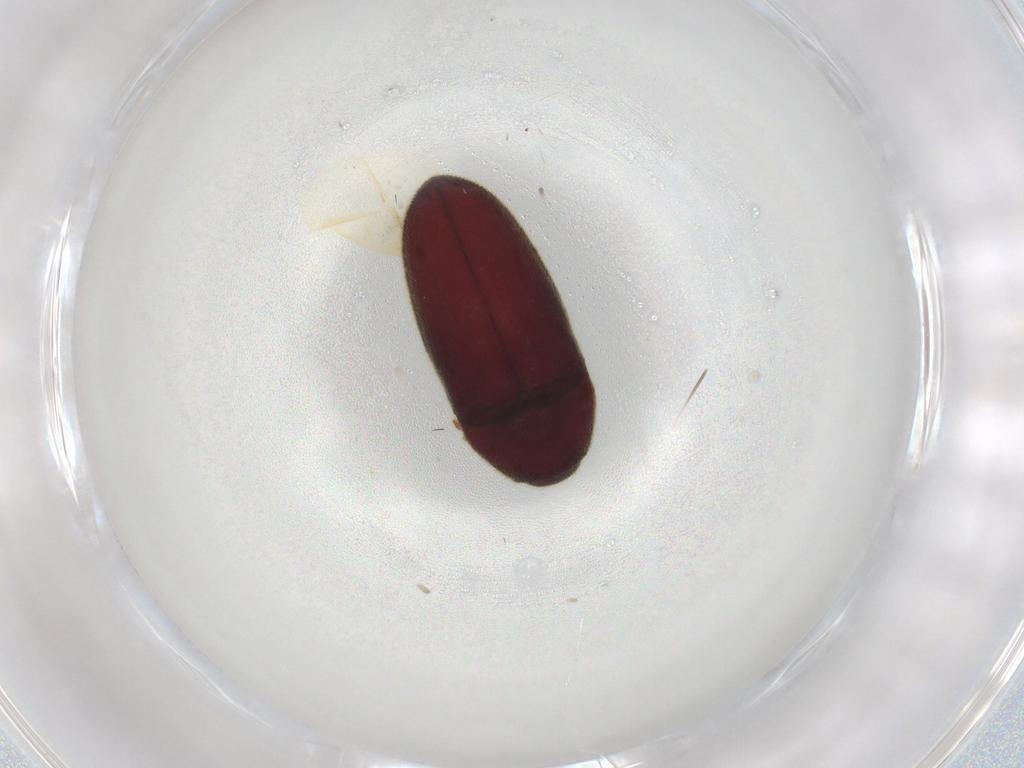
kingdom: Animalia
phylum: Arthropoda
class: Insecta
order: Coleoptera
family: Throscidae
